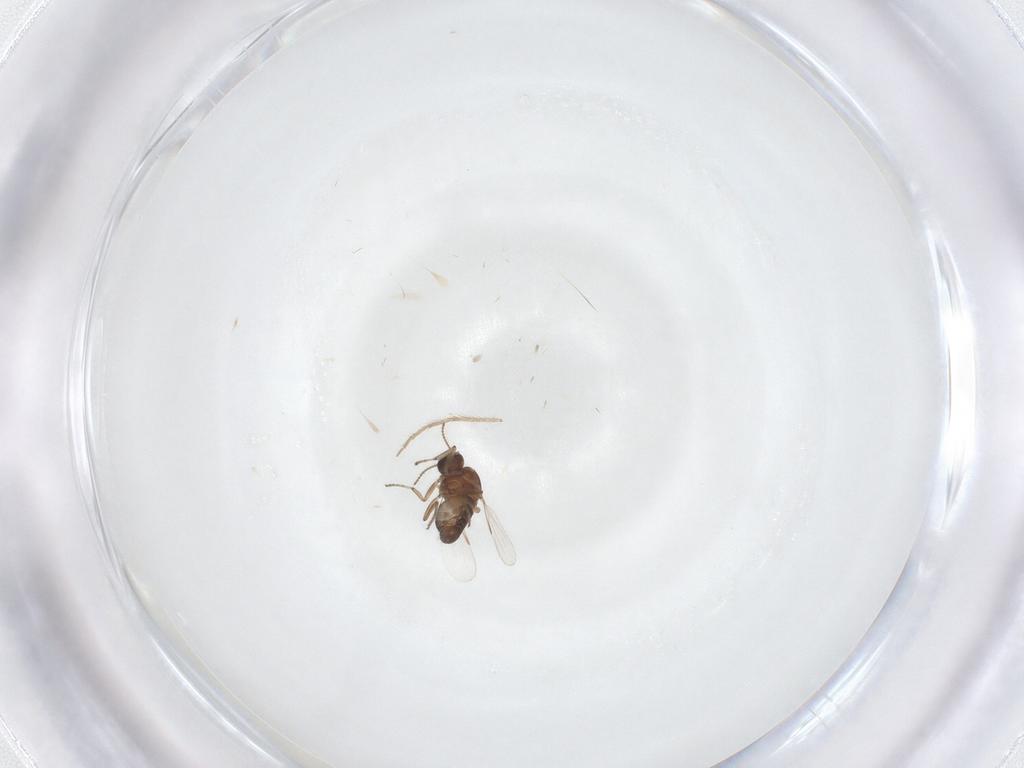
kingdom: Animalia
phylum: Arthropoda
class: Insecta
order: Diptera
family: Ceratopogonidae
